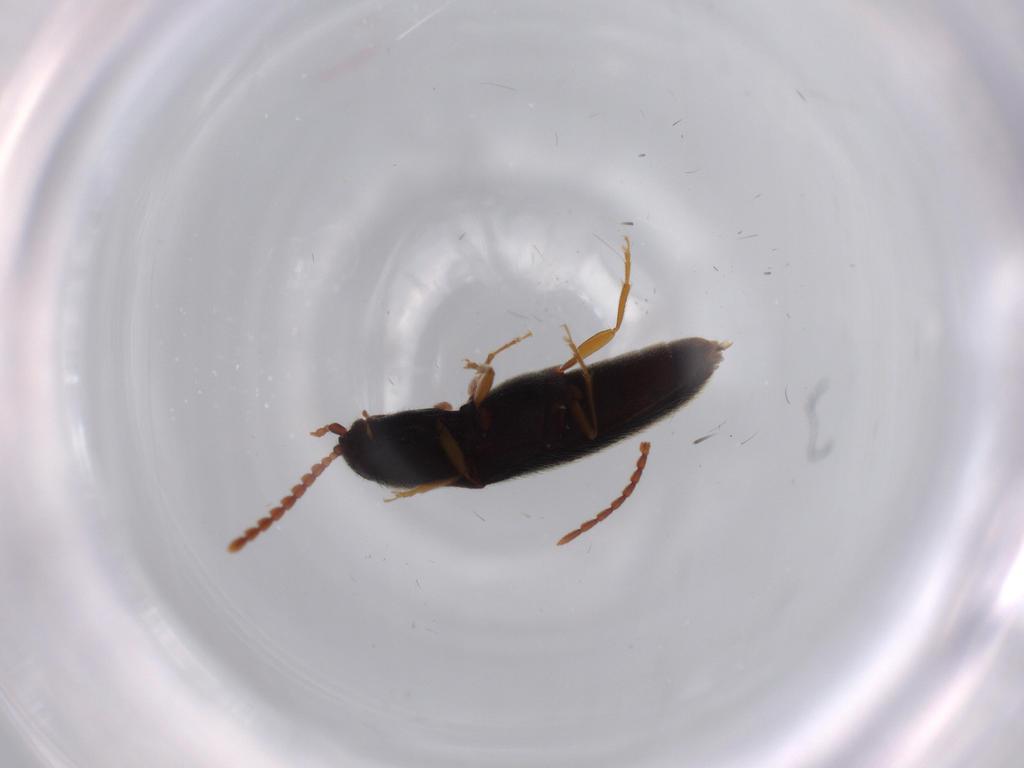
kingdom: Animalia
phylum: Arthropoda
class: Insecta
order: Coleoptera
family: Elateridae
